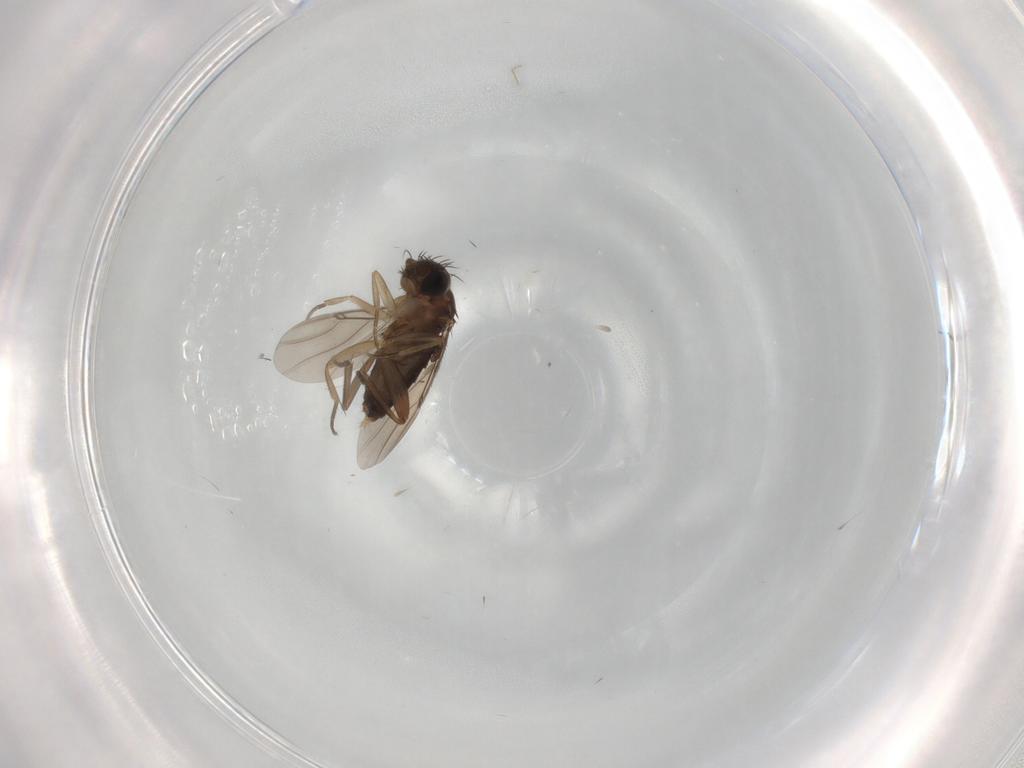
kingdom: Animalia
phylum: Arthropoda
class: Insecta
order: Diptera
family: Phoridae
